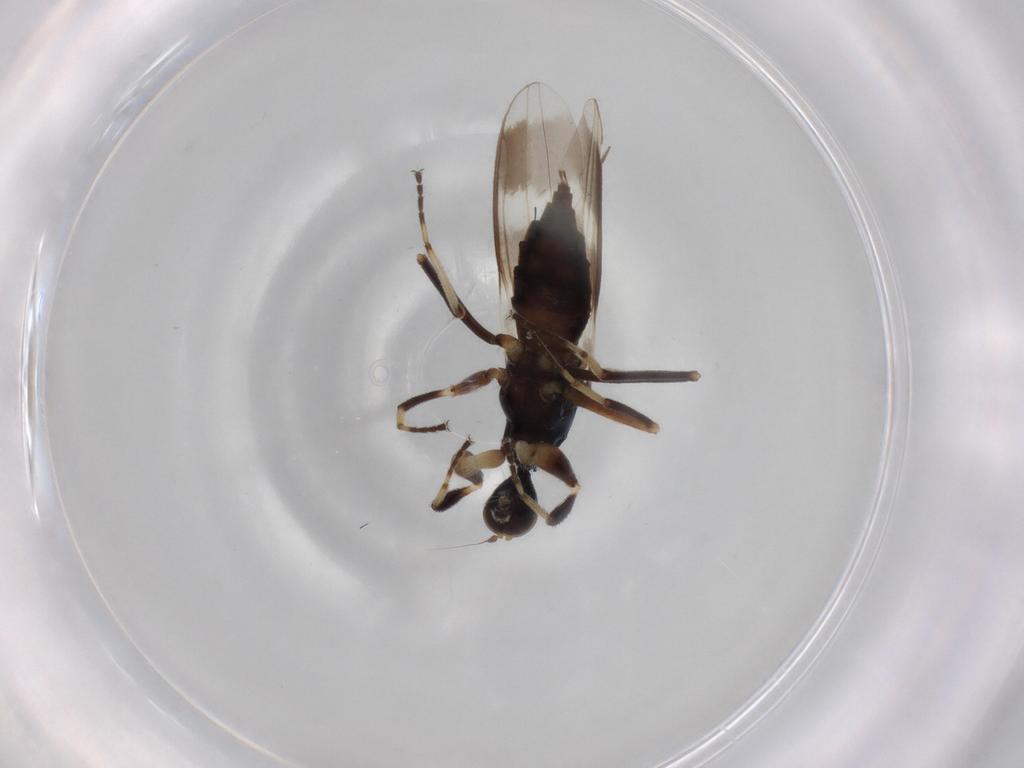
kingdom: Animalia
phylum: Arthropoda
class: Insecta
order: Diptera
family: Hybotidae
